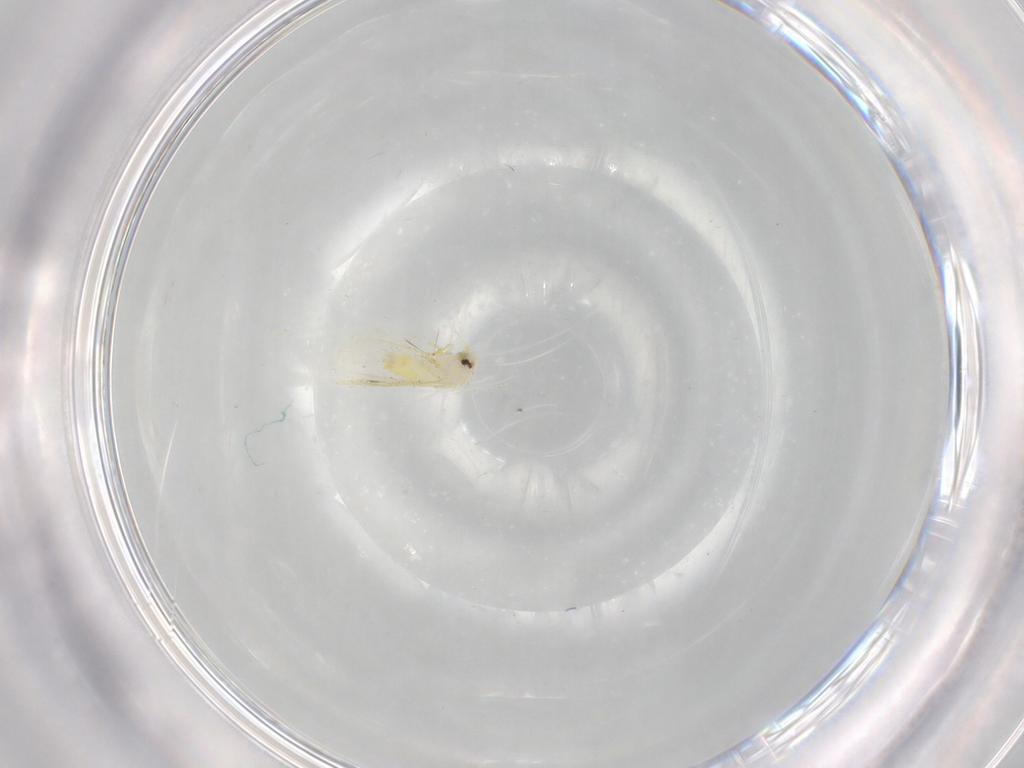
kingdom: Animalia
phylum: Arthropoda
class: Insecta
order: Hemiptera
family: Aleyrodidae
